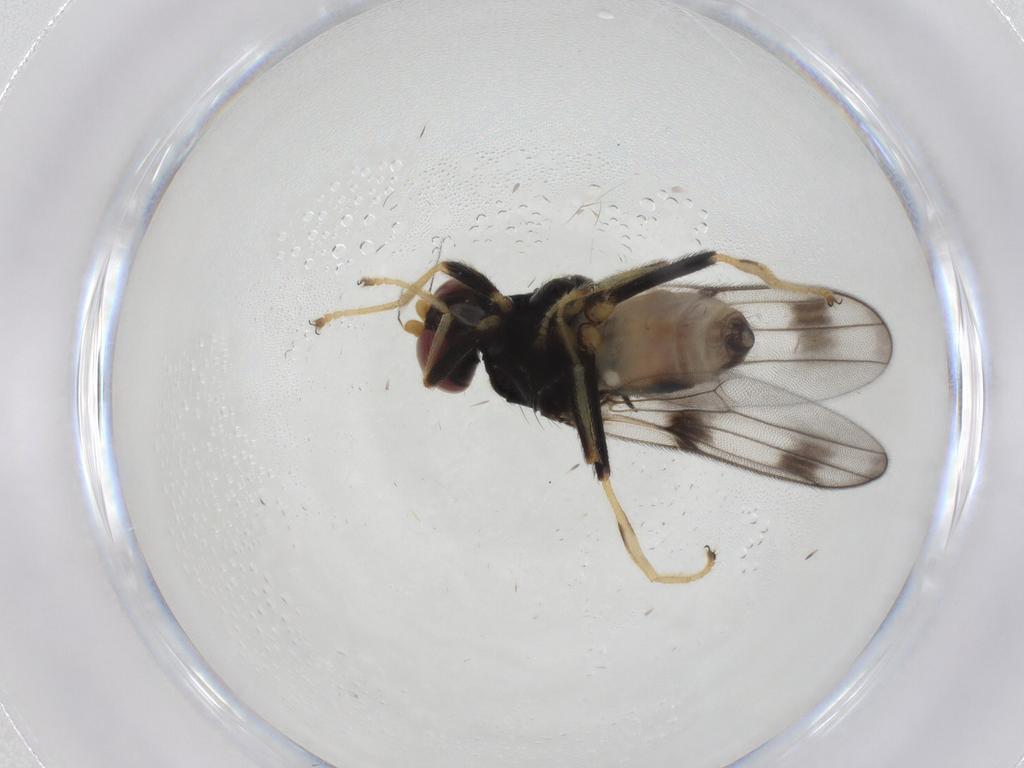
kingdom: Animalia
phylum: Arthropoda
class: Insecta
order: Diptera
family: Chloropidae
